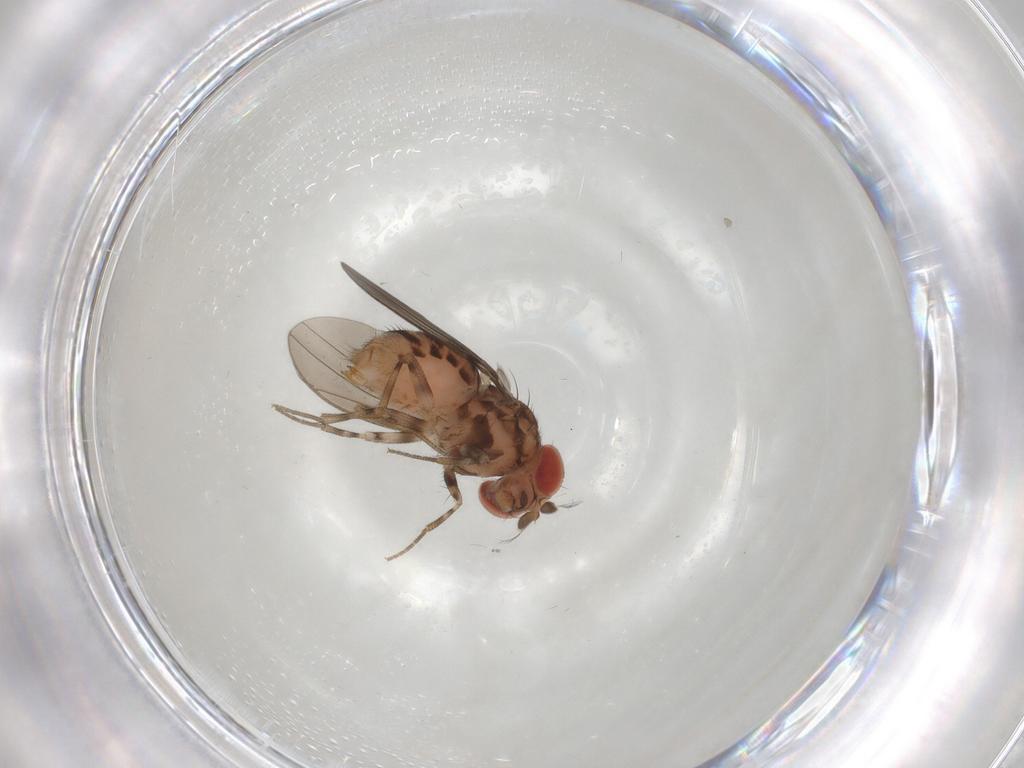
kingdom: Animalia
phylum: Arthropoda
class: Insecta
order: Diptera
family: Drosophilidae
